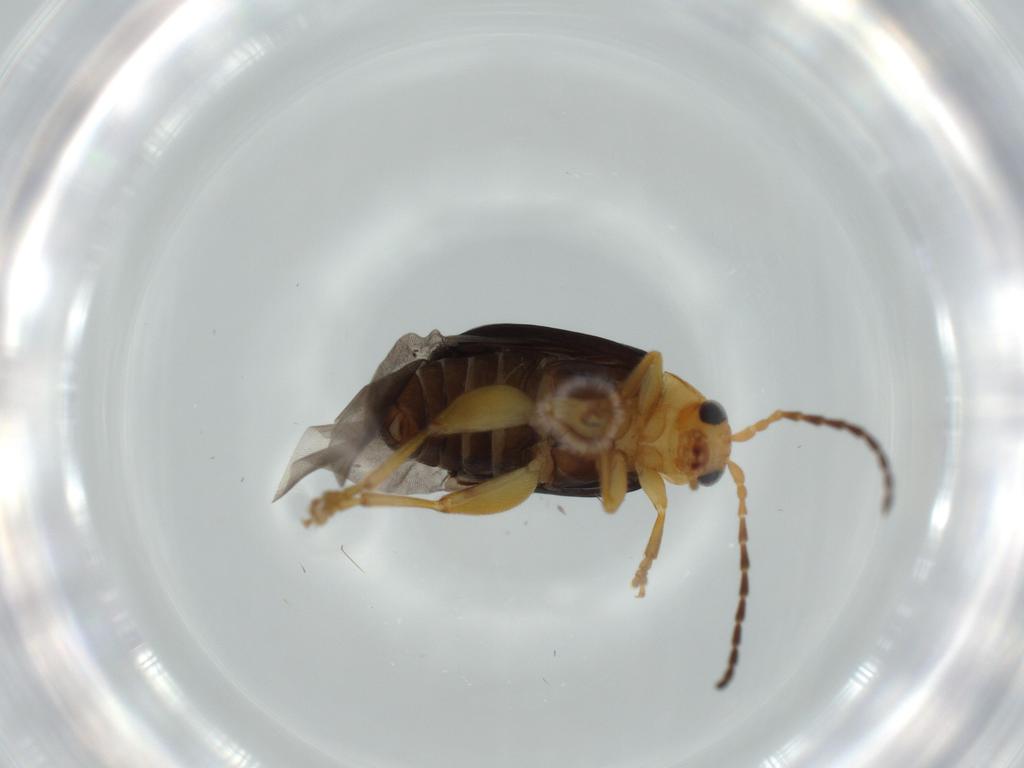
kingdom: Animalia
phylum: Arthropoda
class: Insecta
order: Coleoptera
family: Chrysomelidae
